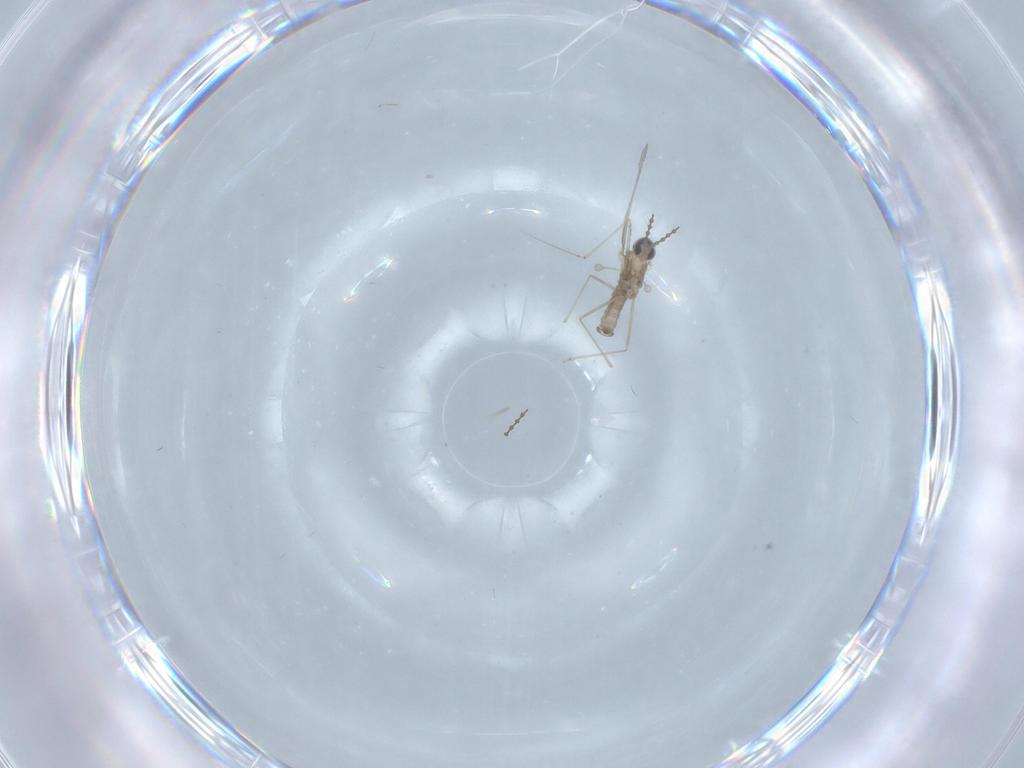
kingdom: Animalia
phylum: Arthropoda
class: Insecta
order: Diptera
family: Cecidomyiidae
